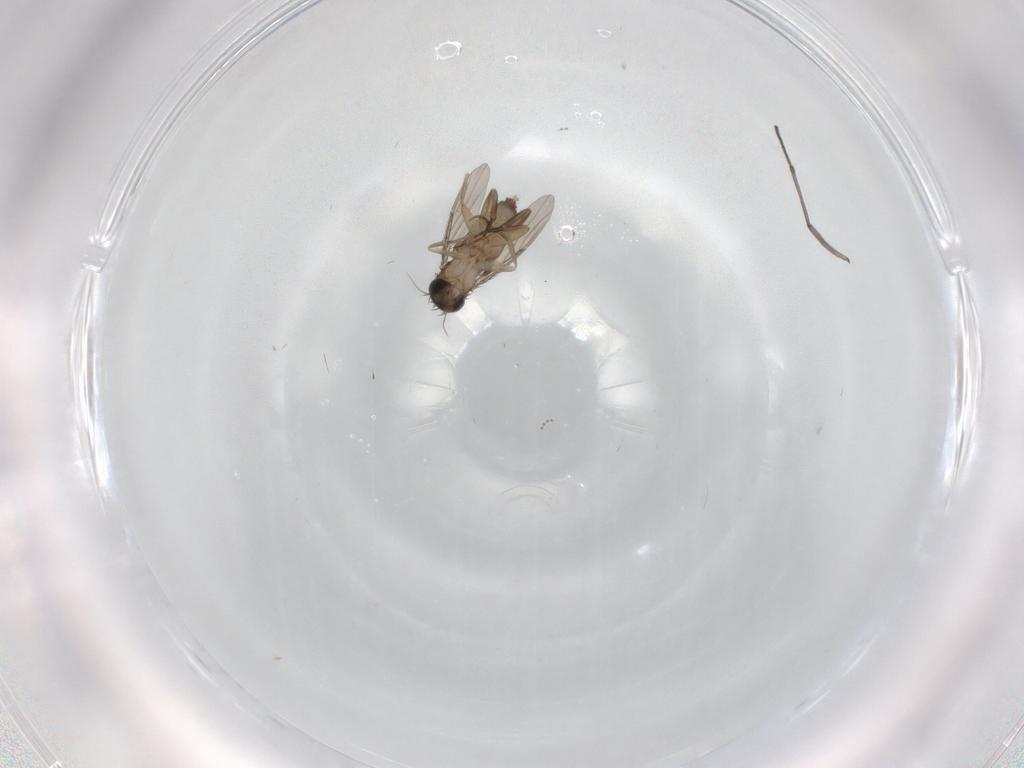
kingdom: Animalia
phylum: Arthropoda
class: Insecta
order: Diptera
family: Phoridae
